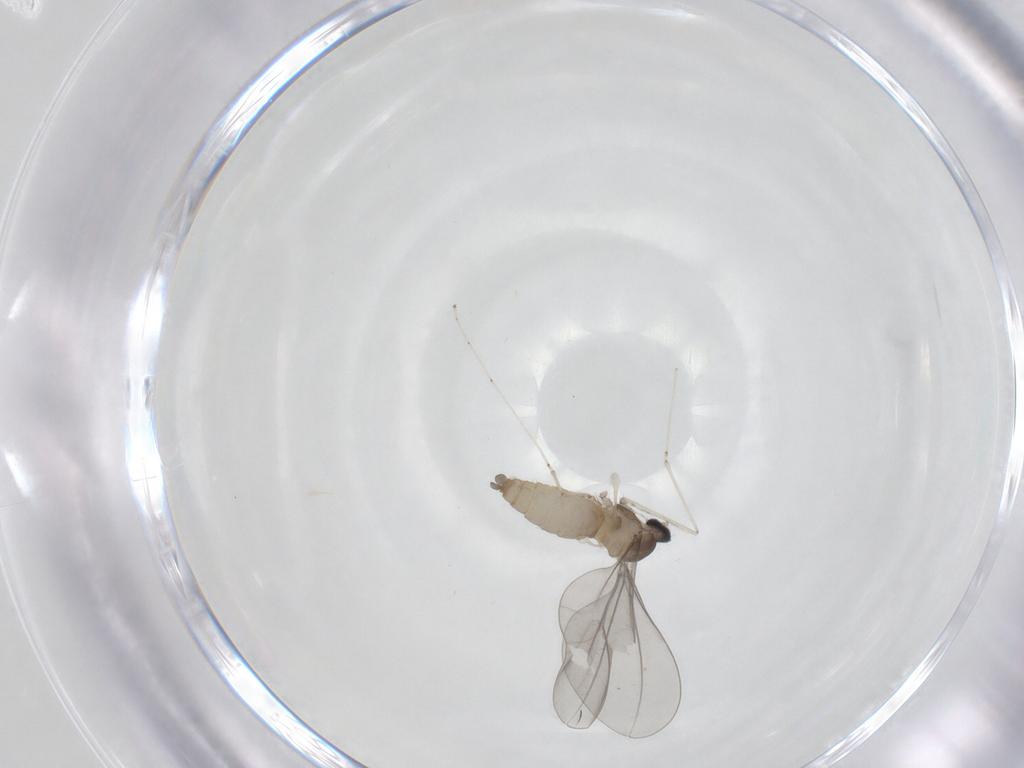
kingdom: Animalia
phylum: Arthropoda
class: Insecta
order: Diptera
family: Cecidomyiidae
